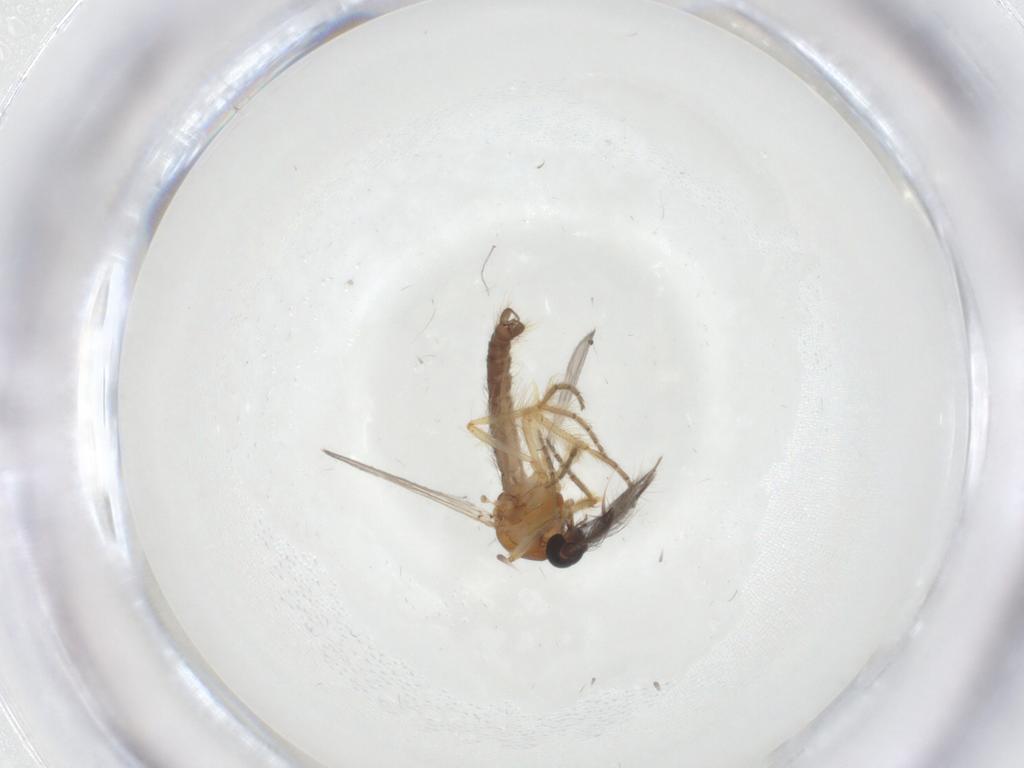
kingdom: Animalia
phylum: Arthropoda
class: Insecta
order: Diptera
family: Ceratopogonidae
